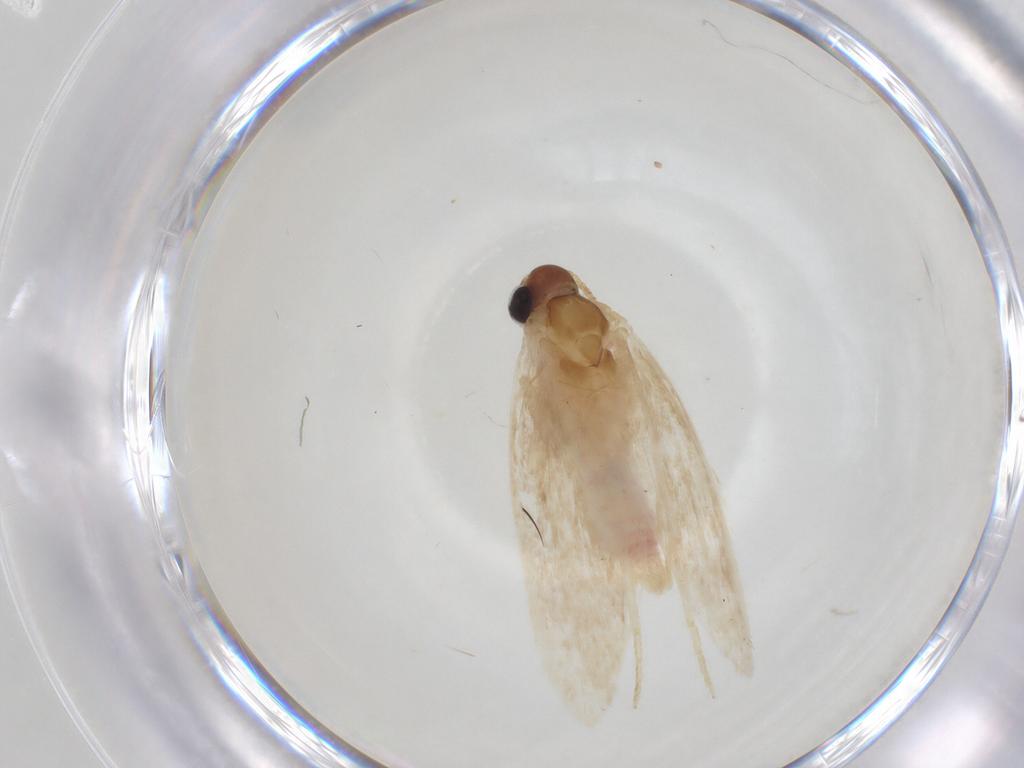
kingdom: Animalia
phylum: Arthropoda
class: Insecta
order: Lepidoptera
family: Autostichidae
